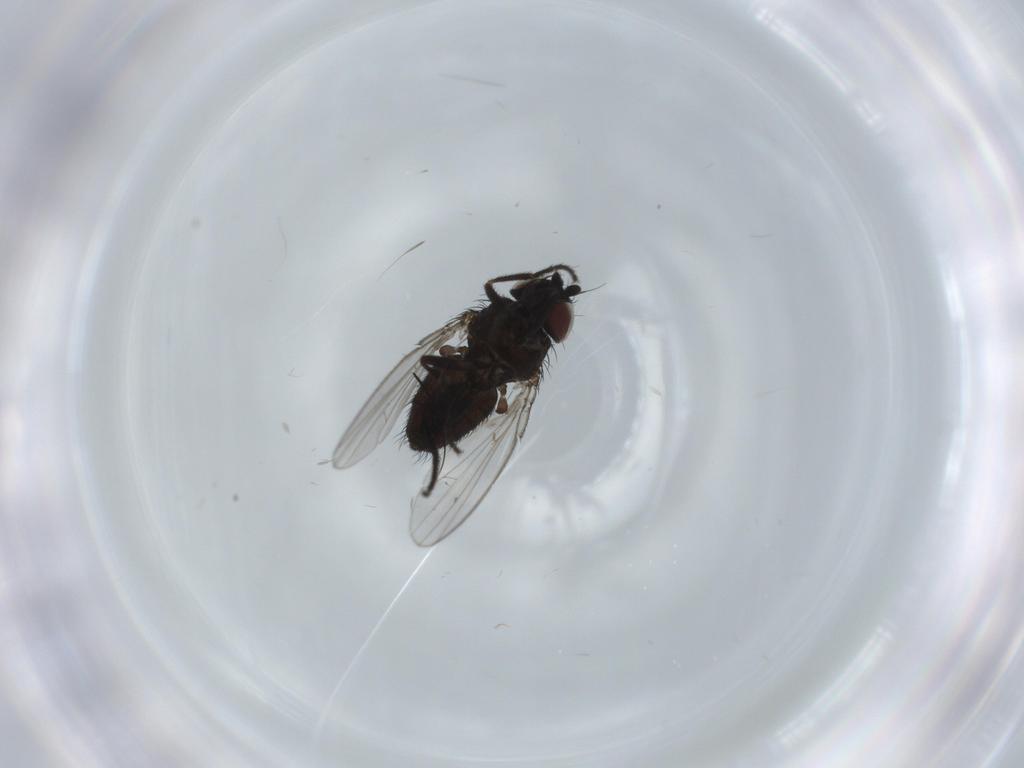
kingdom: Animalia
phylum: Arthropoda
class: Insecta
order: Diptera
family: Milichiidae
